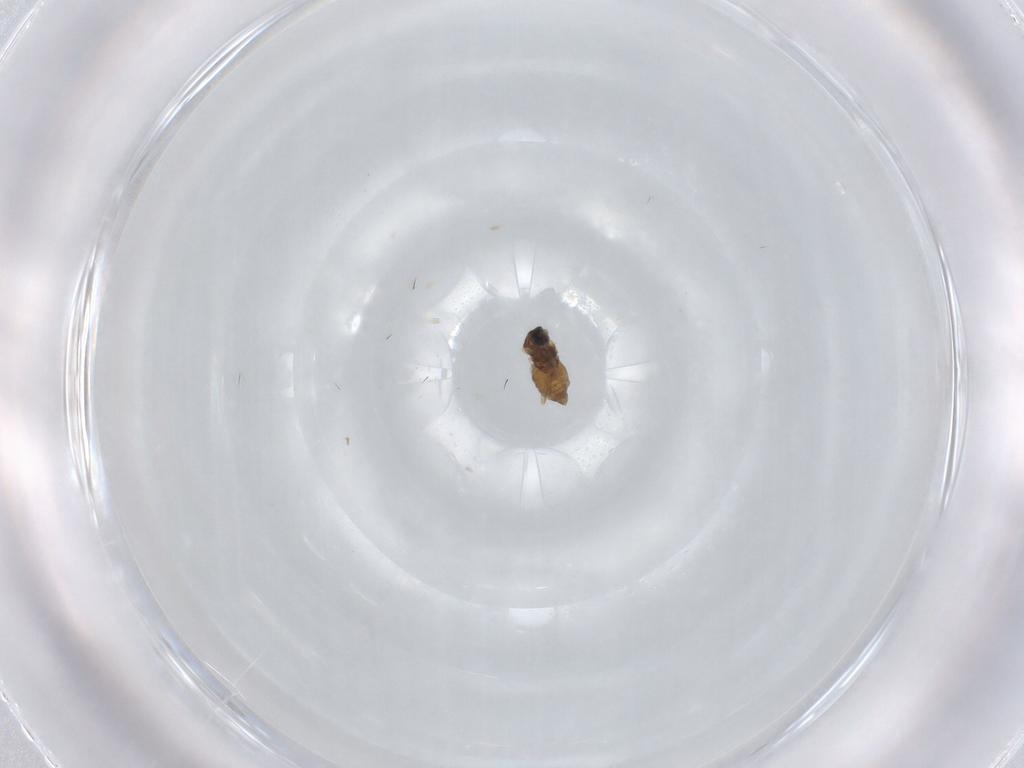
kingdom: Animalia
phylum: Arthropoda
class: Insecta
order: Diptera
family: Cecidomyiidae
